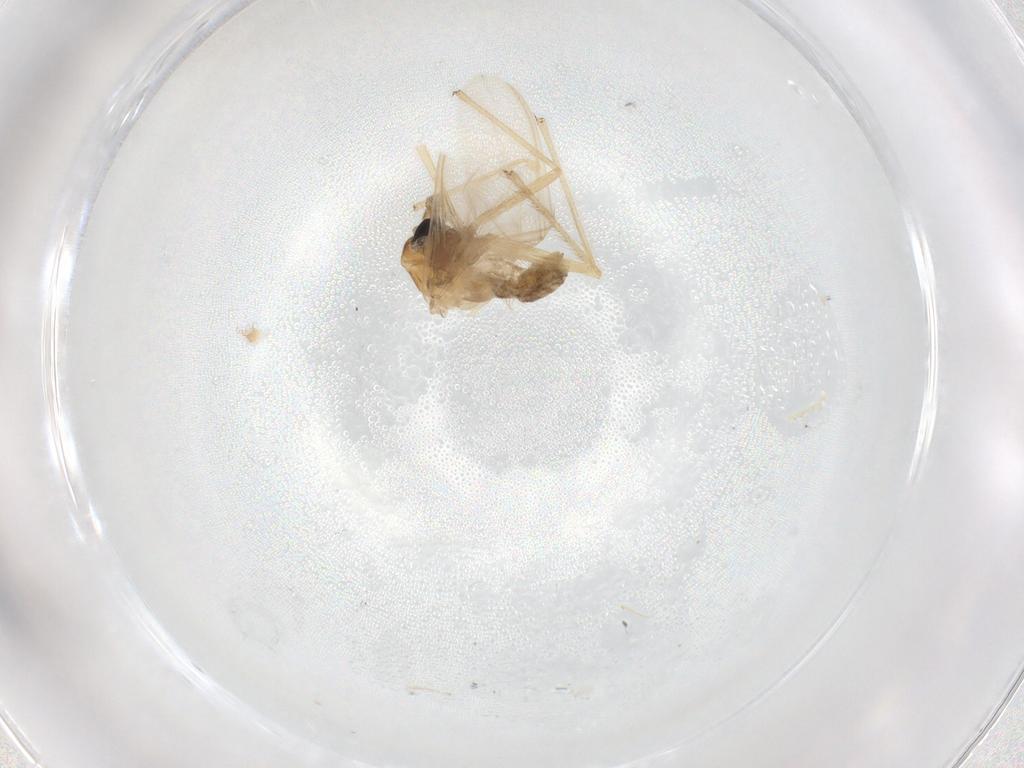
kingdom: Animalia
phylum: Arthropoda
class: Insecta
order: Diptera
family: Chironomidae
